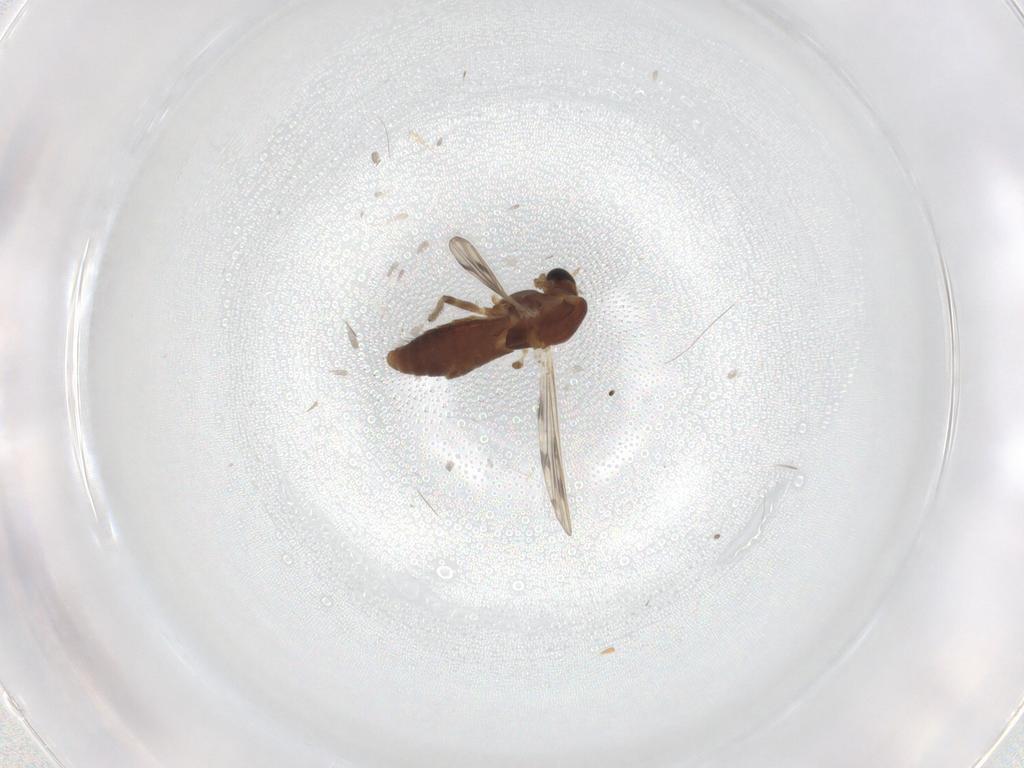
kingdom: Animalia
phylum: Arthropoda
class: Insecta
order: Diptera
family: Chironomidae
